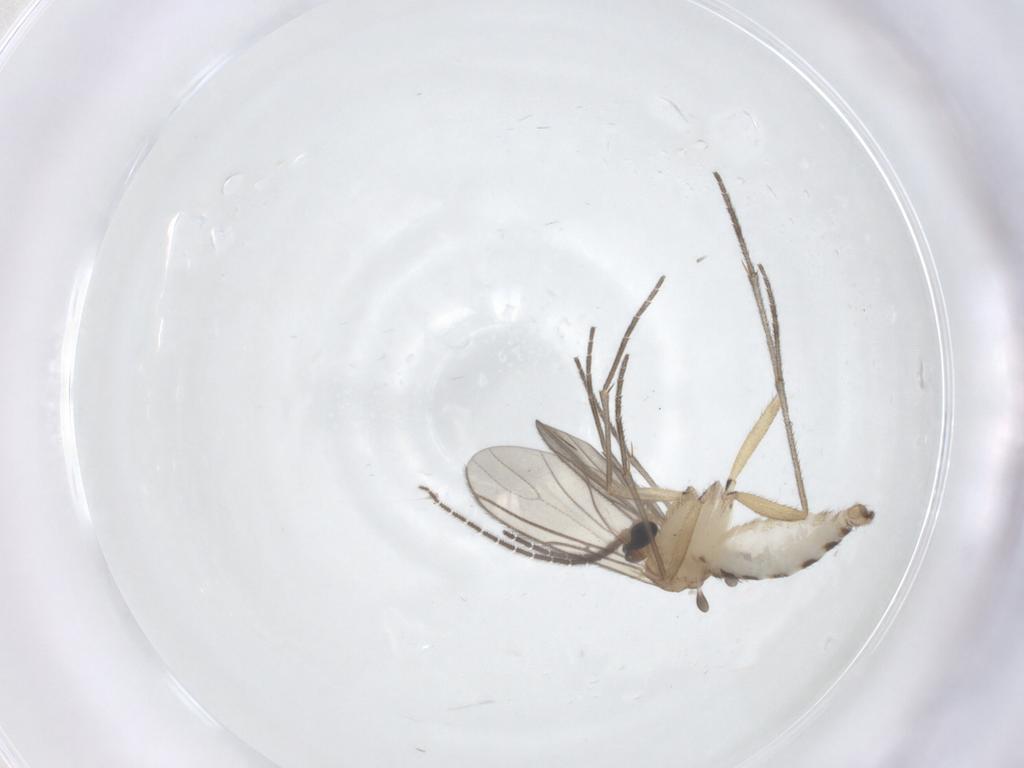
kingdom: Animalia
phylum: Arthropoda
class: Insecta
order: Diptera
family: Sciaridae
